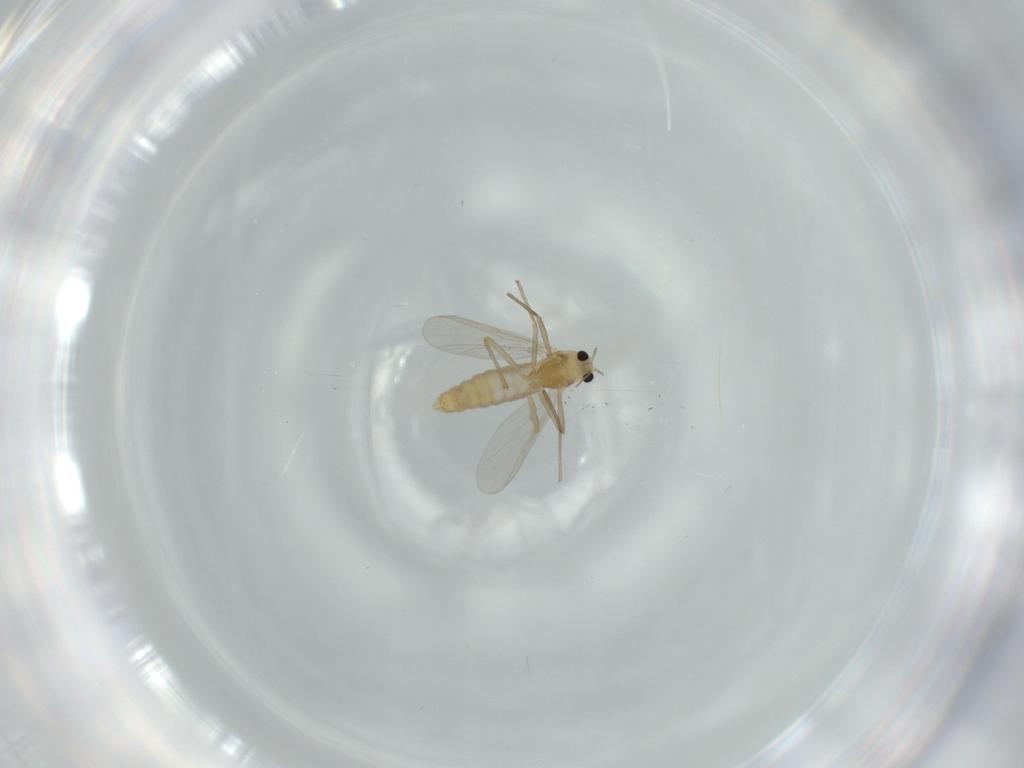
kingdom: Animalia
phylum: Arthropoda
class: Insecta
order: Diptera
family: Chironomidae
